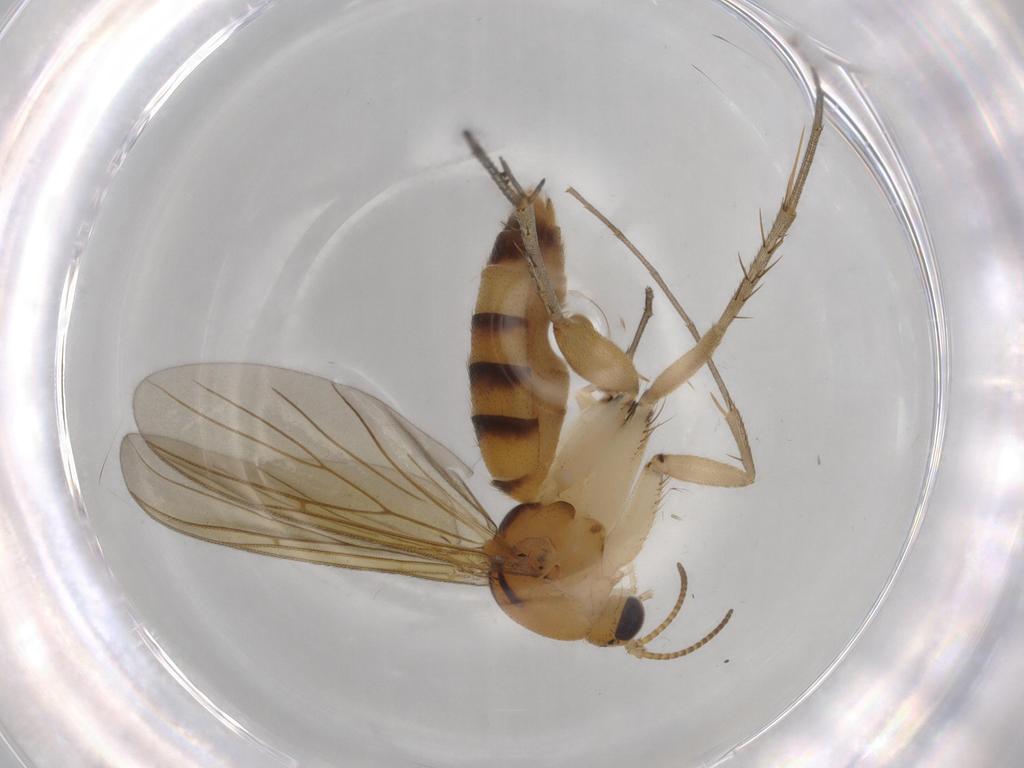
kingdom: Animalia
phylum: Arthropoda
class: Insecta
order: Diptera
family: Mycetophilidae
